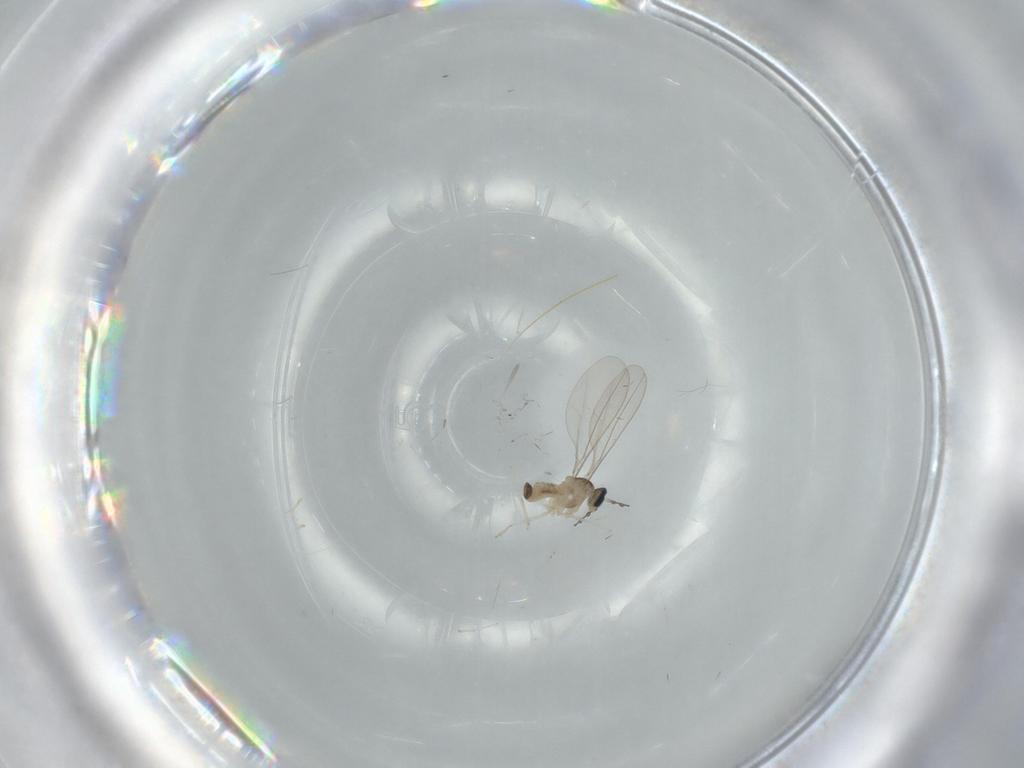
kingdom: Animalia
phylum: Arthropoda
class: Insecta
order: Diptera
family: Cecidomyiidae
